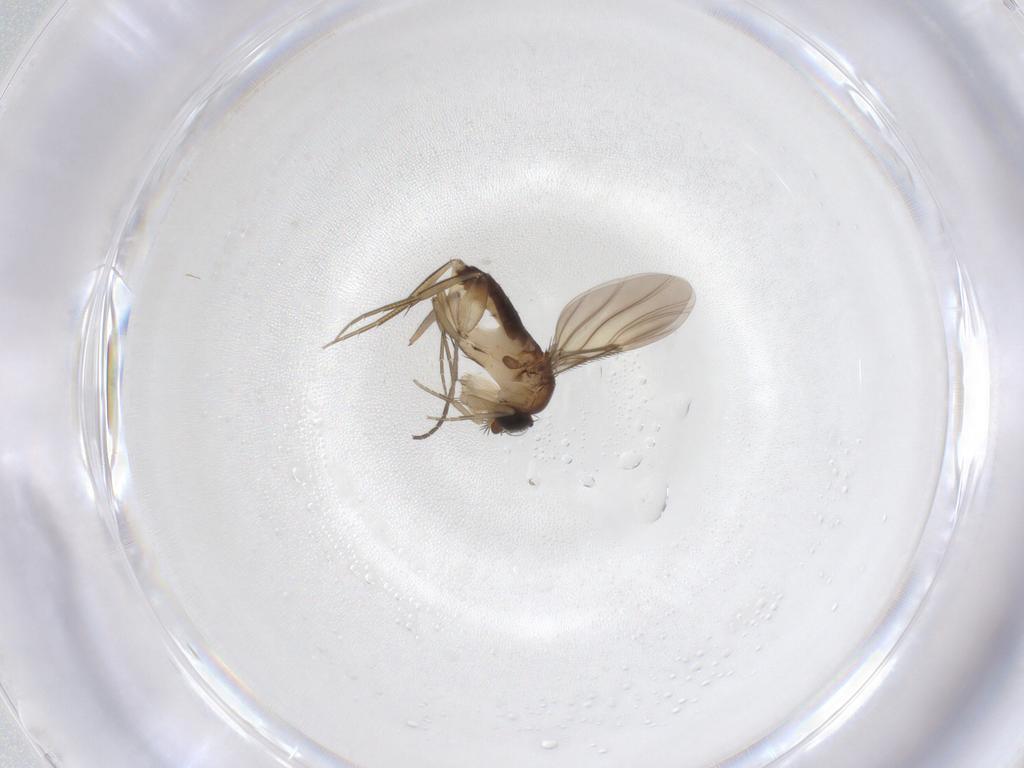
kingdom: Animalia
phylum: Arthropoda
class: Insecta
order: Diptera
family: Phoridae
